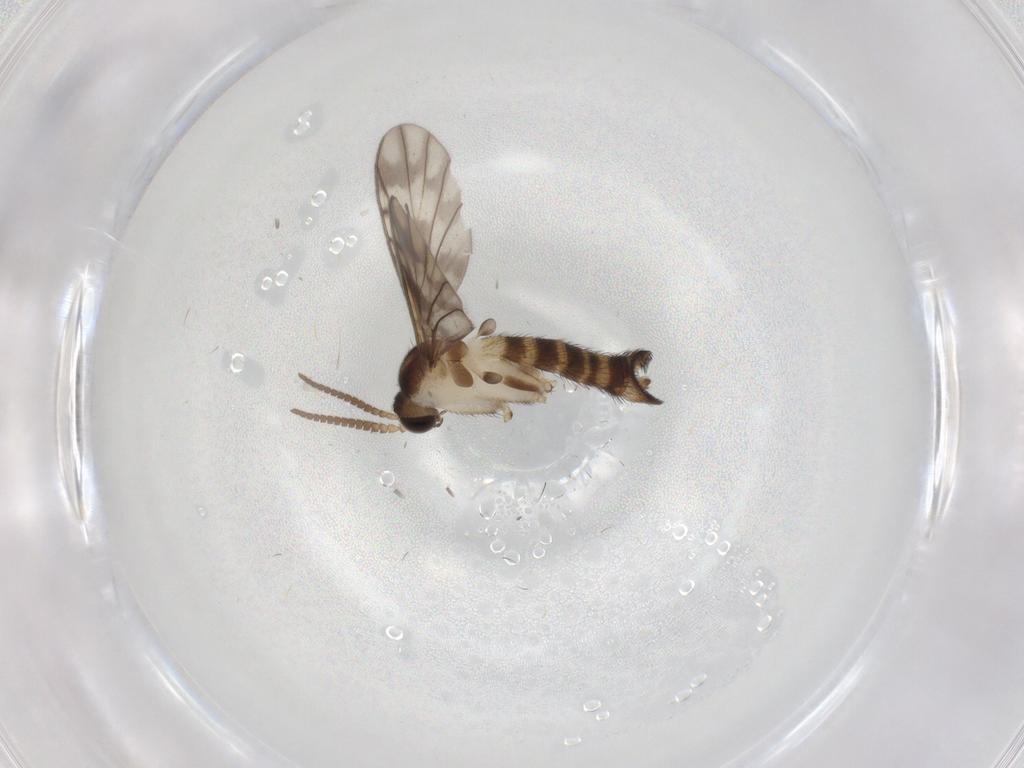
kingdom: Animalia
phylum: Arthropoda
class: Insecta
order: Diptera
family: Keroplatidae
